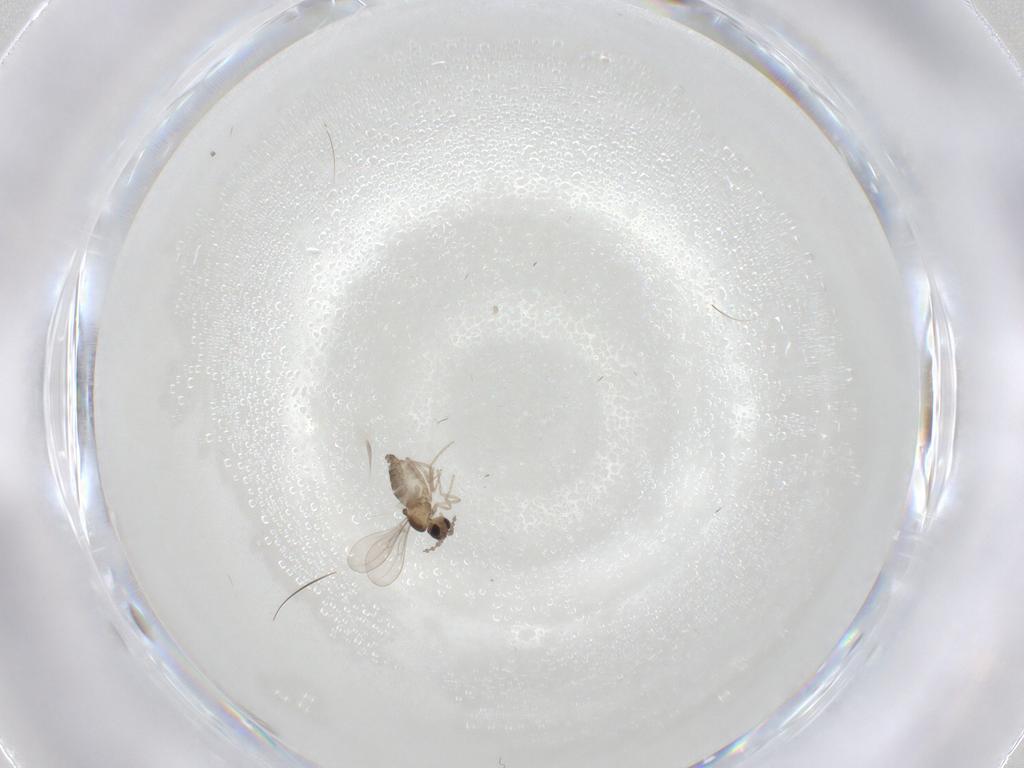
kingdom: Animalia
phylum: Arthropoda
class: Insecta
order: Diptera
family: Cecidomyiidae
